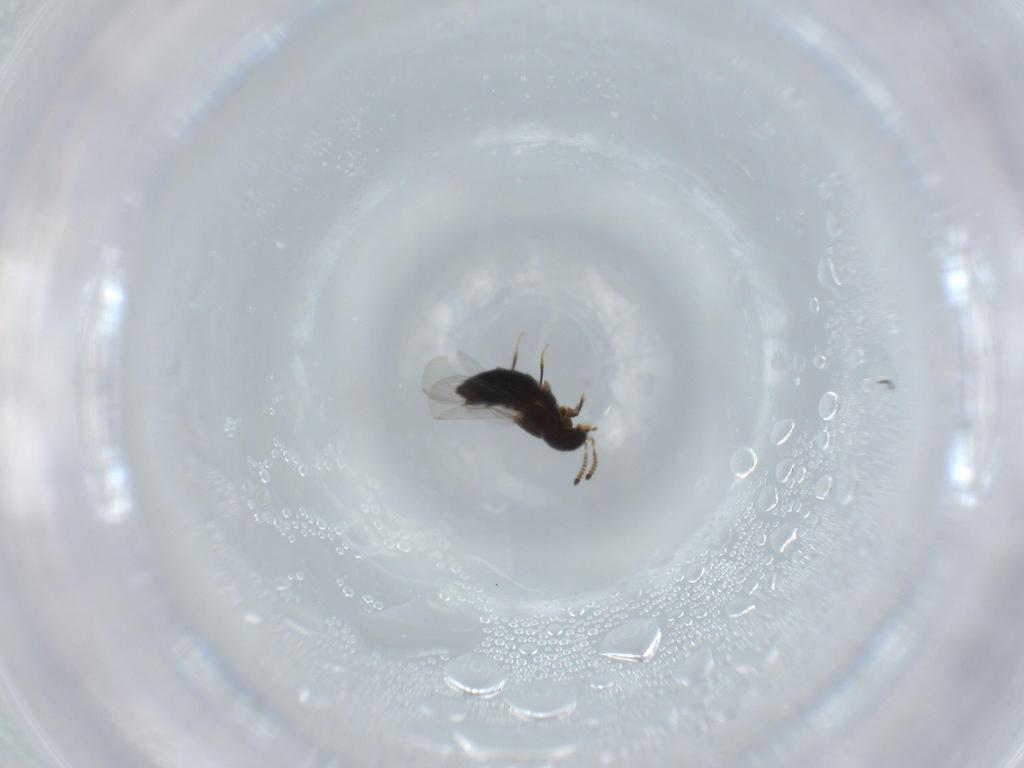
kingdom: Animalia
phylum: Arthropoda
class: Insecta
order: Coleoptera
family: Staphylinidae
